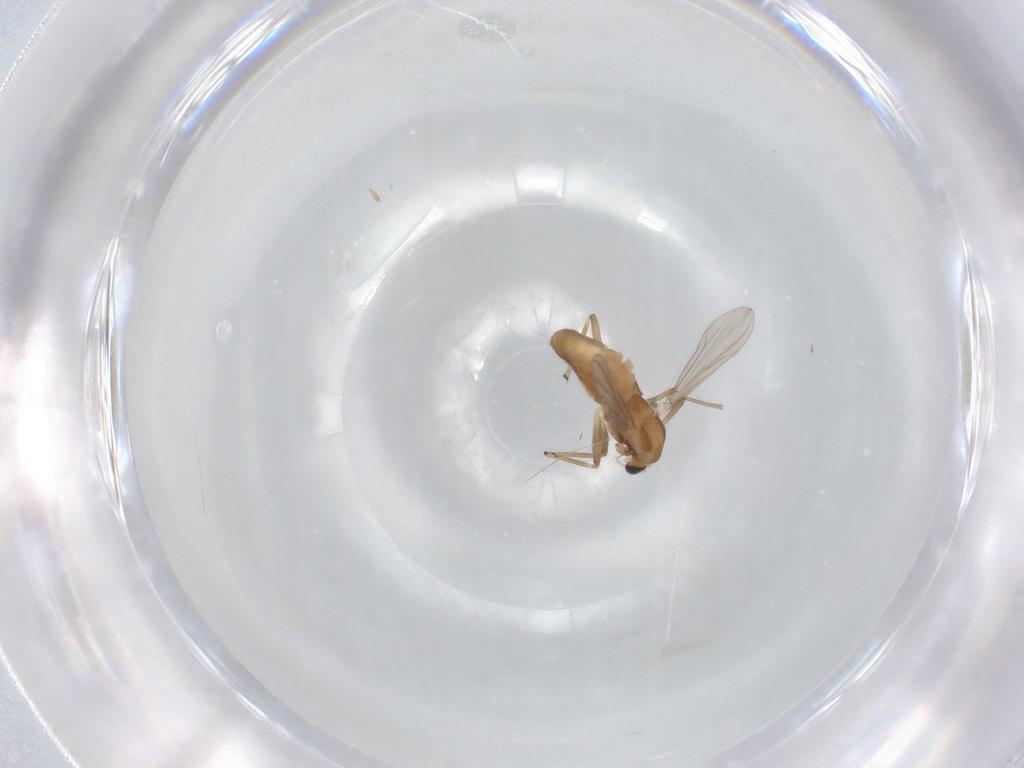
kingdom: Animalia
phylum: Arthropoda
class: Insecta
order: Diptera
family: Chironomidae
